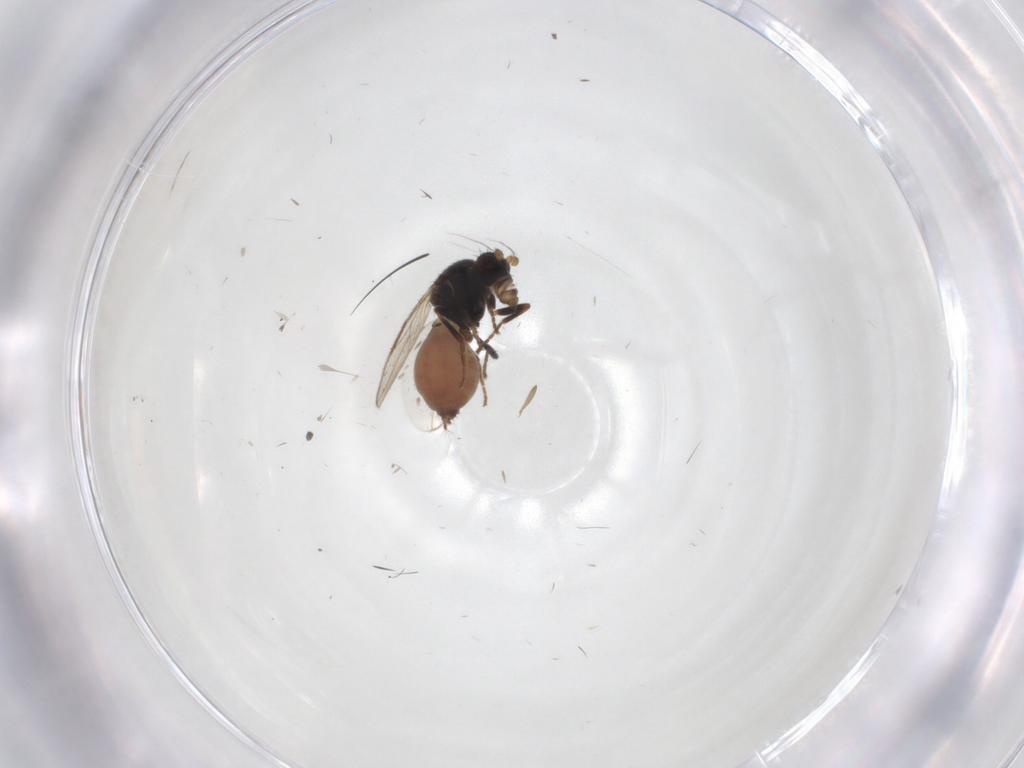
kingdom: Animalia
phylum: Arthropoda
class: Insecta
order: Diptera
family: Sphaeroceridae
